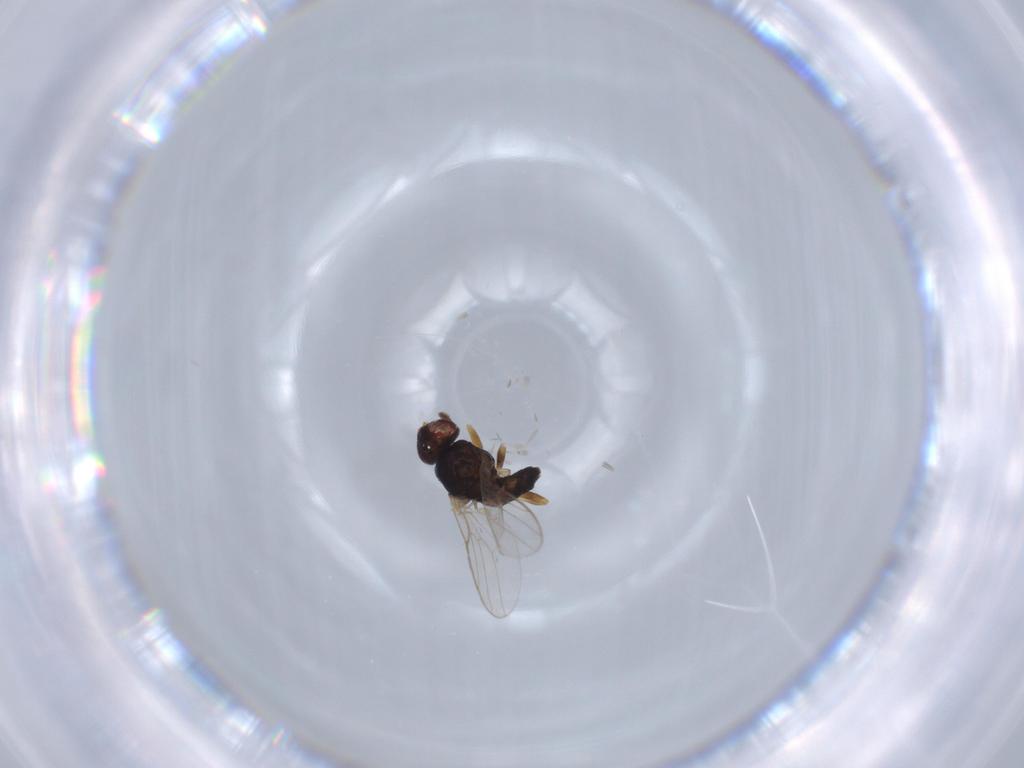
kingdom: Animalia
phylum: Arthropoda
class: Insecta
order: Diptera
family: Chloropidae
